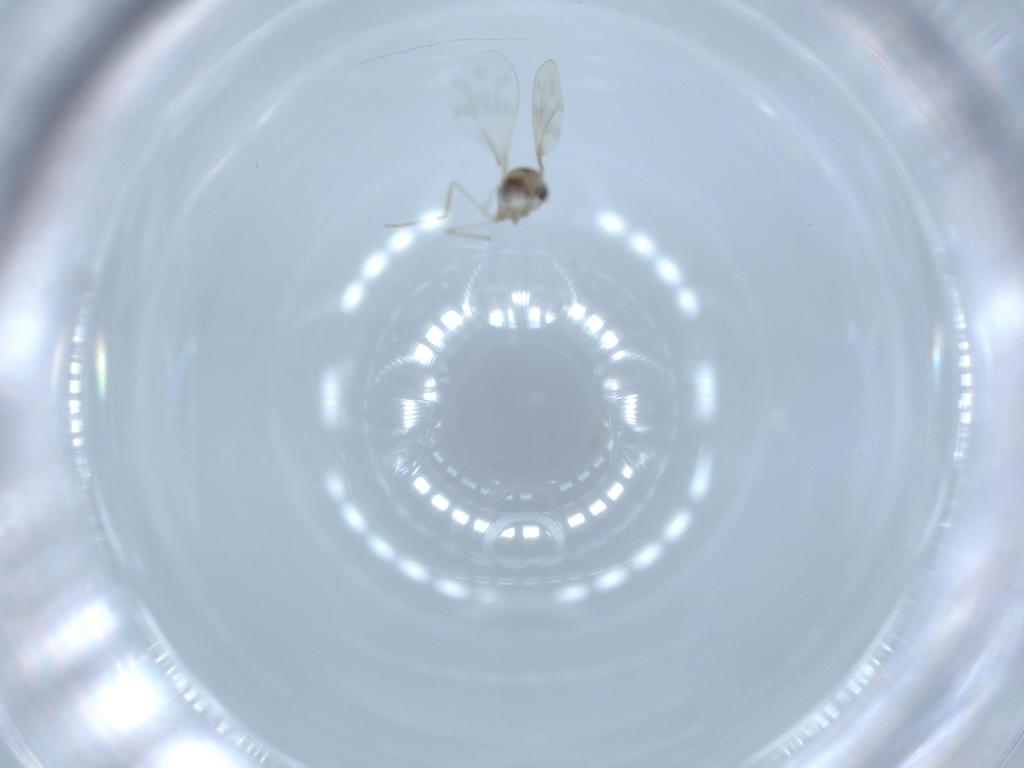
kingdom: Animalia
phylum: Arthropoda
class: Insecta
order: Diptera
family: Cecidomyiidae
